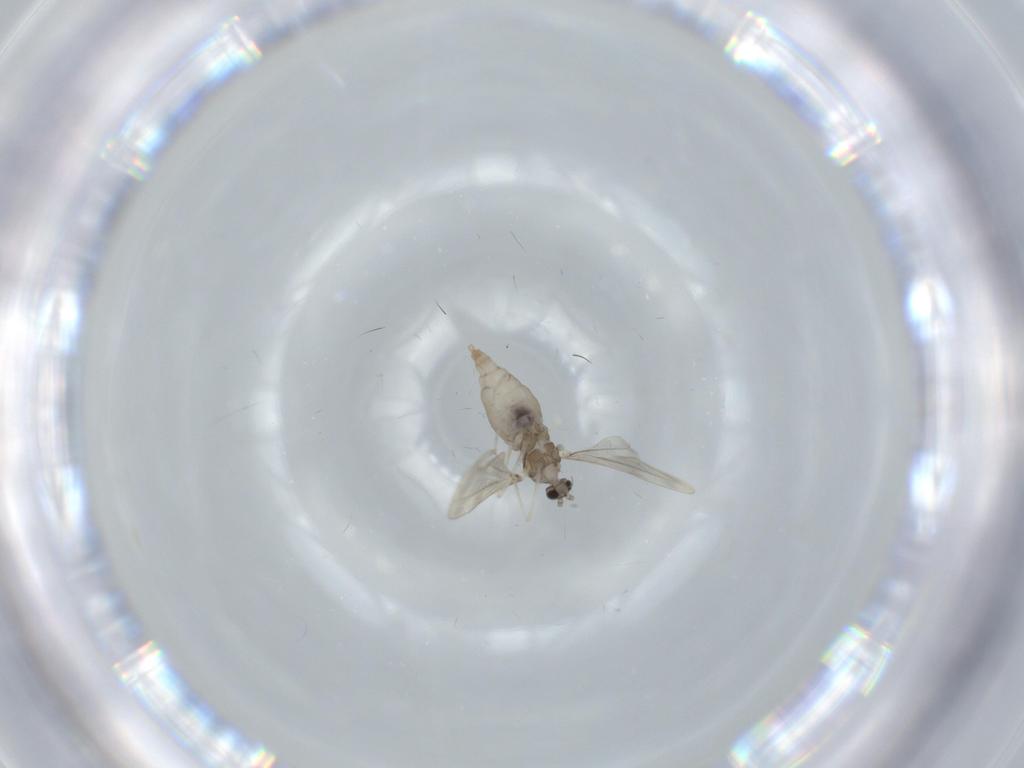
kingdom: Animalia
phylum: Arthropoda
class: Insecta
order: Diptera
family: Cecidomyiidae
